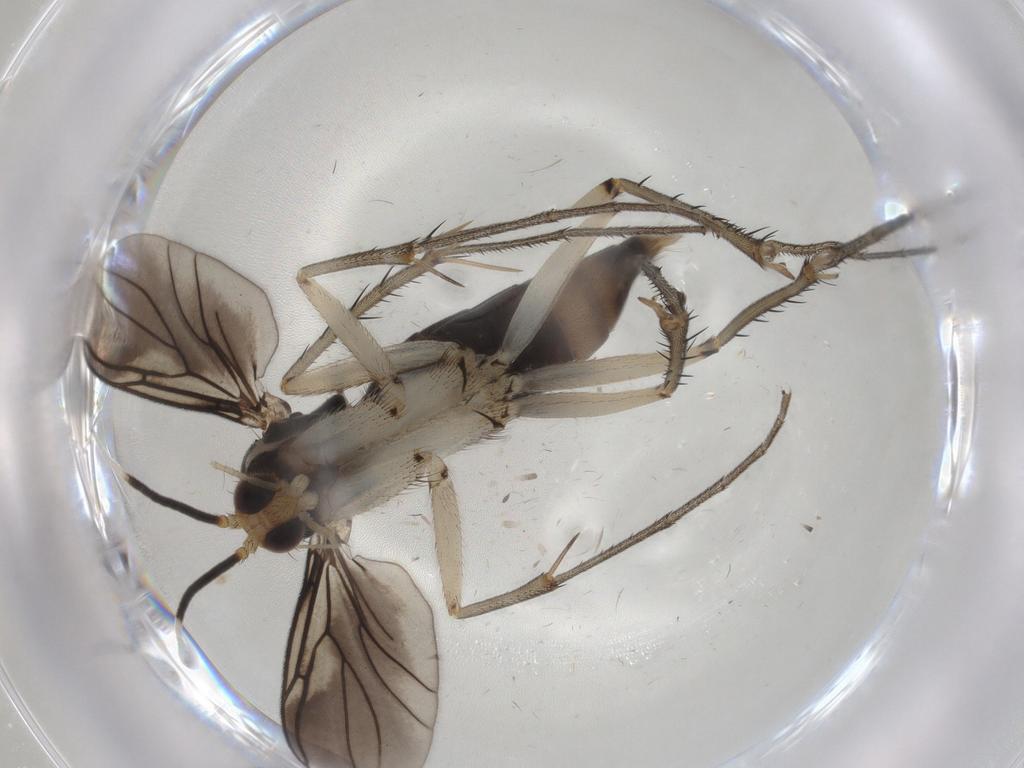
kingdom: Animalia
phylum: Arthropoda
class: Insecta
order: Diptera
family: Mycetophilidae
